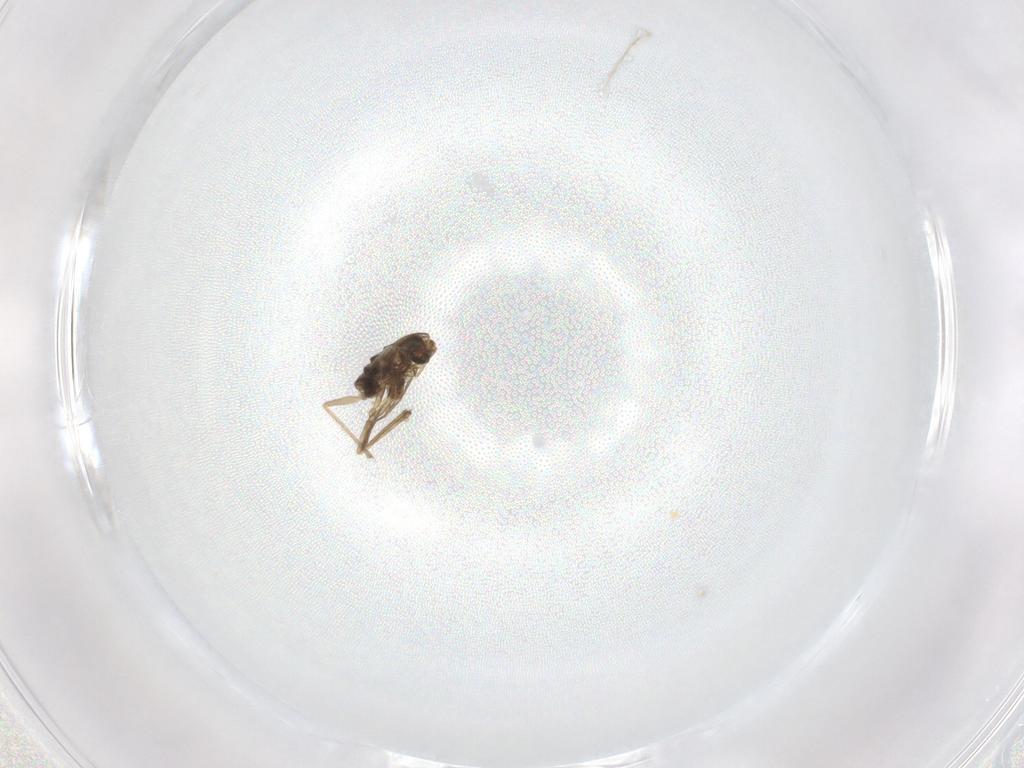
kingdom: Animalia
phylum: Arthropoda
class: Insecta
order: Diptera
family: Chironomidae
